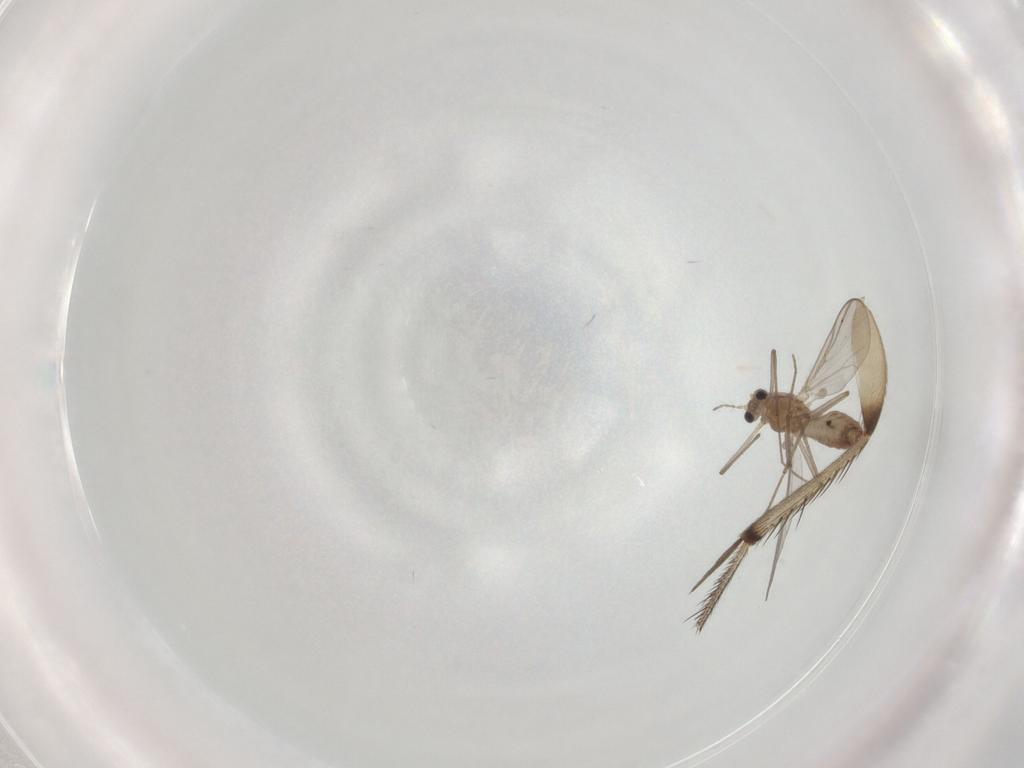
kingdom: Animalia
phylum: Arthropoda
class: Insecta
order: Diptera
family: Chironomidae
